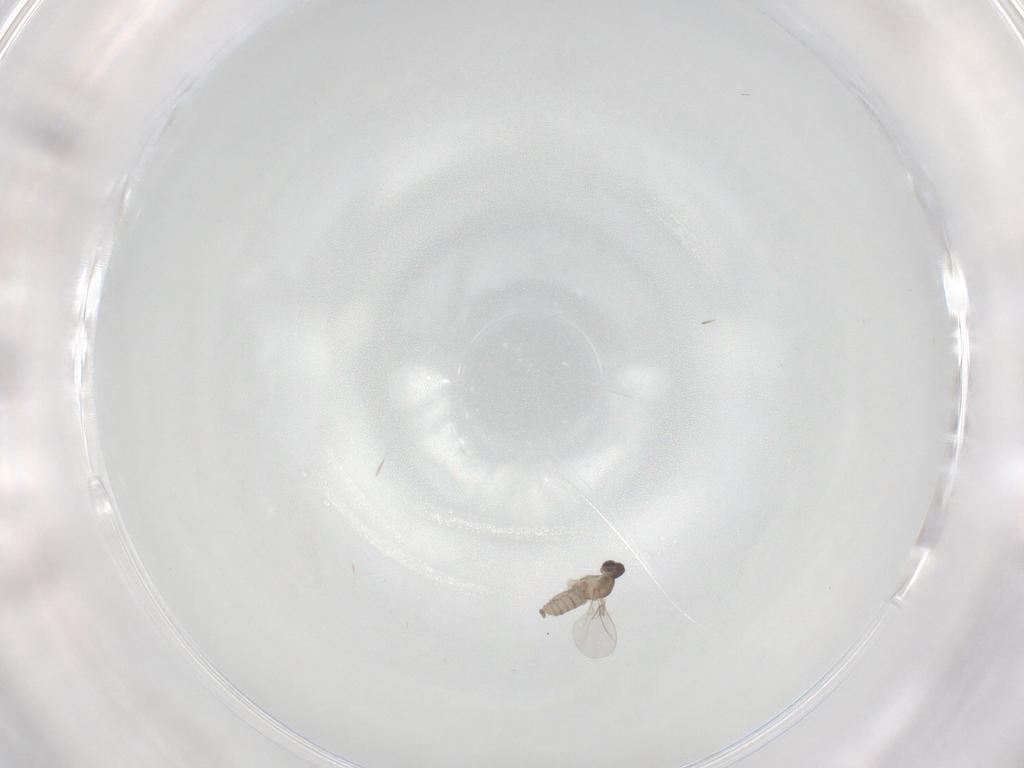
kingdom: Animalia
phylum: Arthropoda
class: Insecta
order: Diptera
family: Cecidomyiidae
